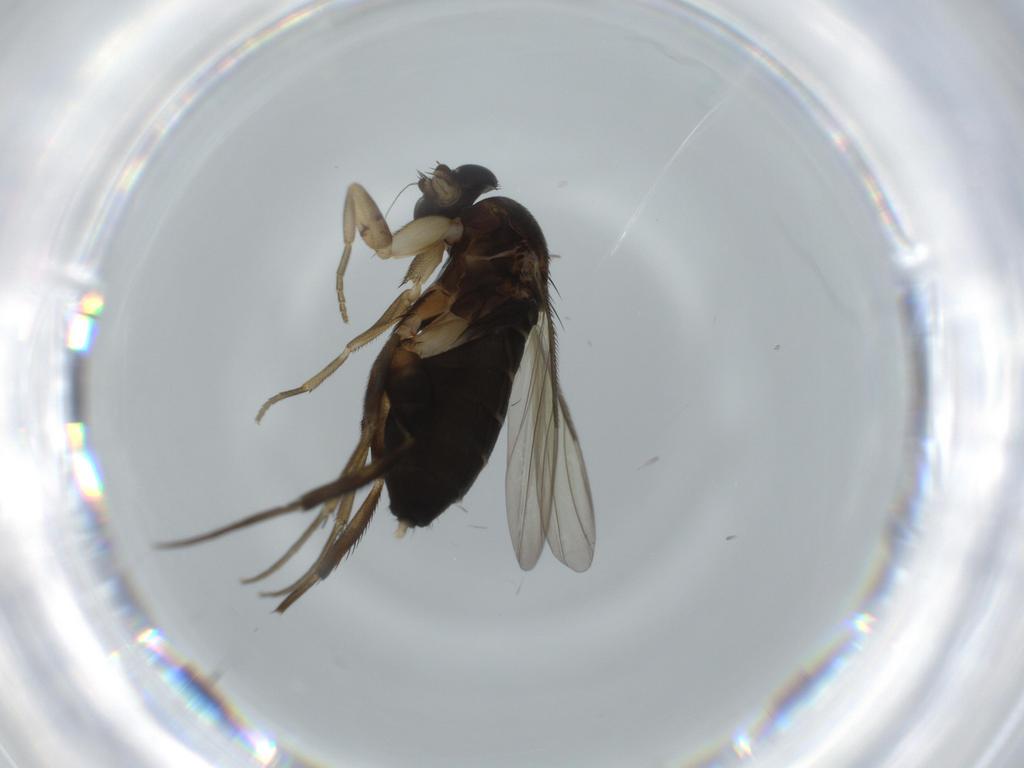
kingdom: Animalia
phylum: Arthropoda
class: Insecta
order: Diptera
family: Phoridae
